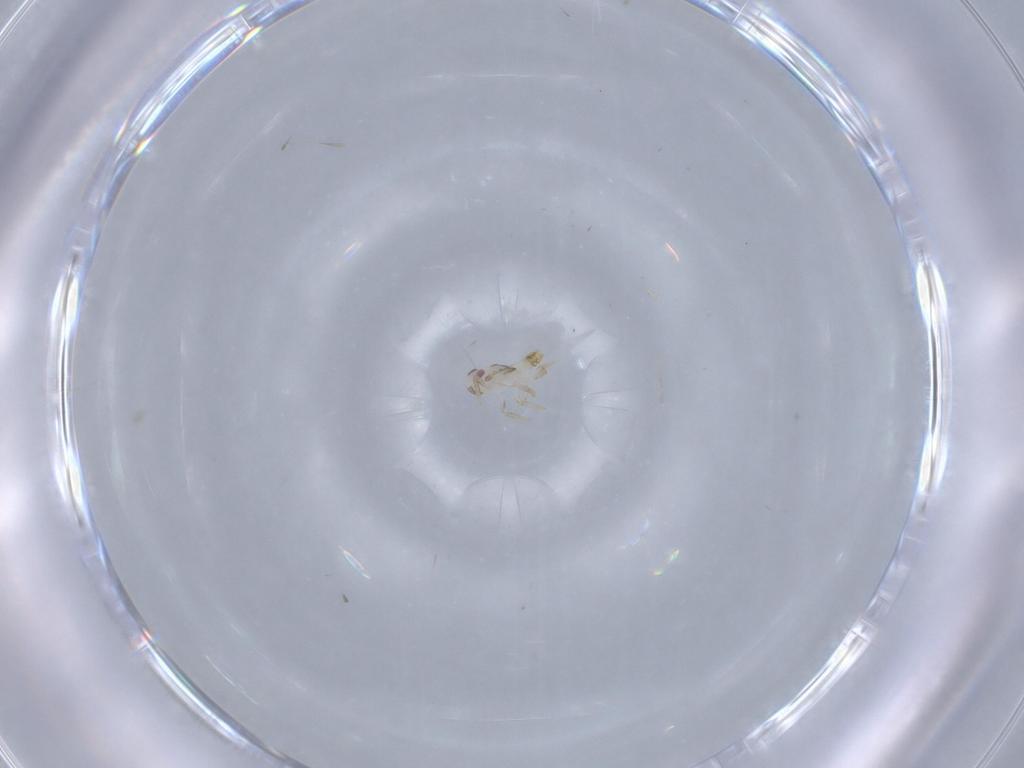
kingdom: Animalia
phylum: Arthropoda
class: Insecta
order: Hemiptera
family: Delphacidae
